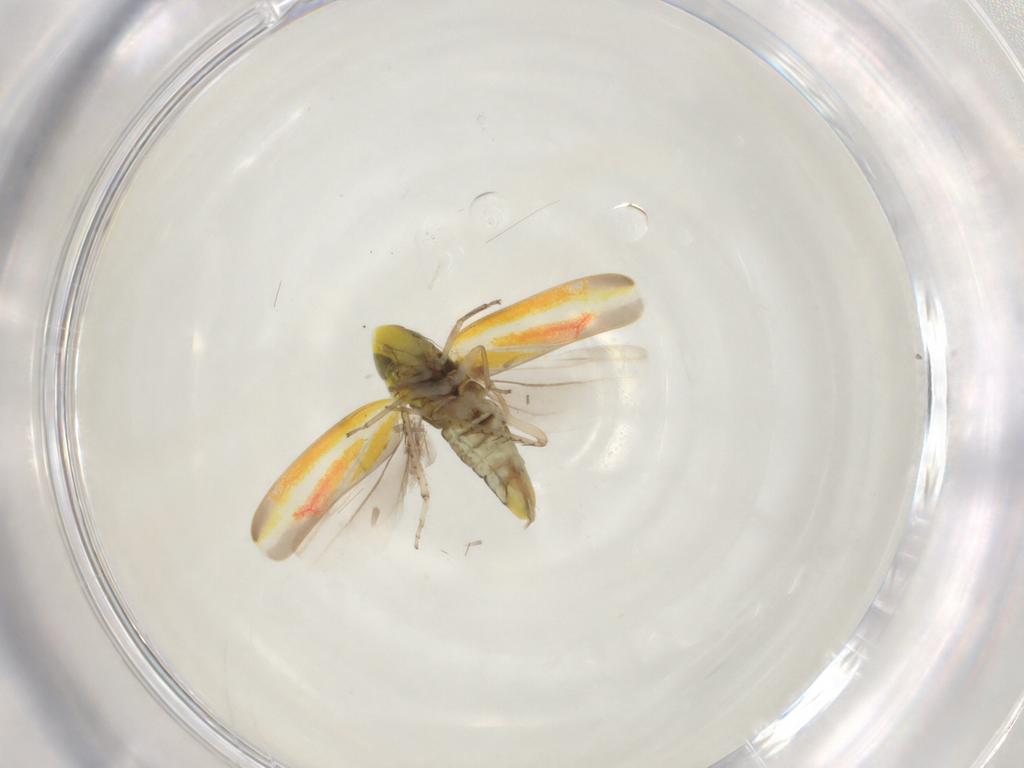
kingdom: Animalia
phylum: Arthropoda
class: Insecta
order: Hemiptera
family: Cicadellidae
